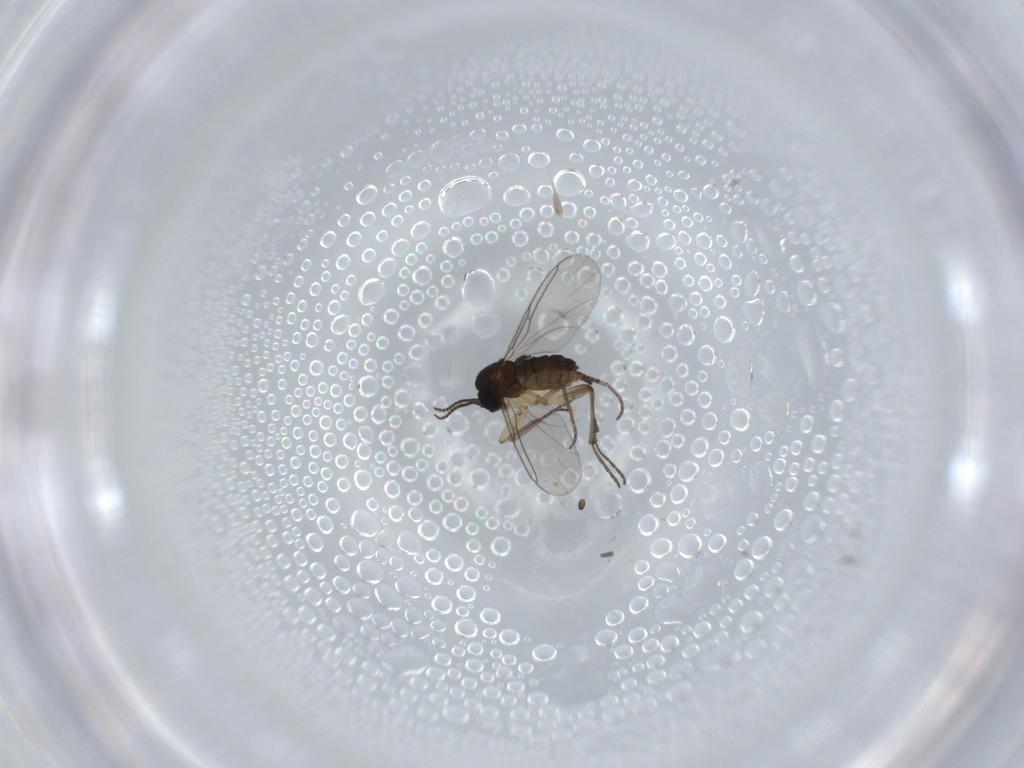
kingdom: Animalia
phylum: Arthropoda
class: Insecta
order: Diptera
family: Sciaridae
